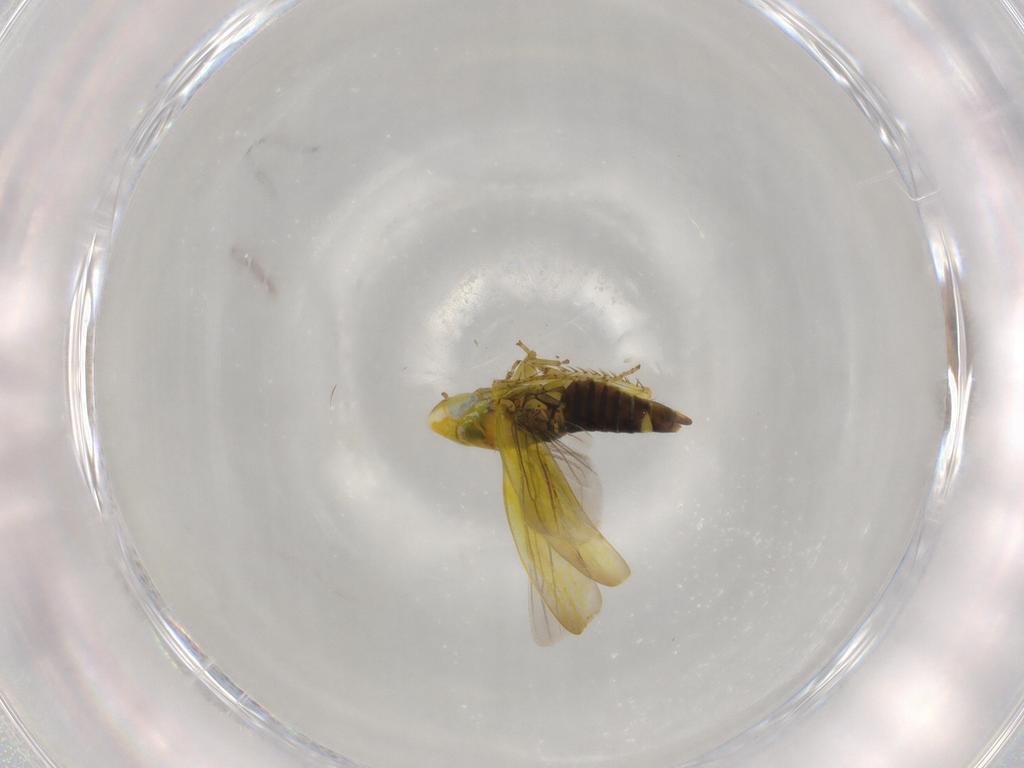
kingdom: Animalia
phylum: Arthropoda
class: Insecta
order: Hemiptera
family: Cicadellidae
